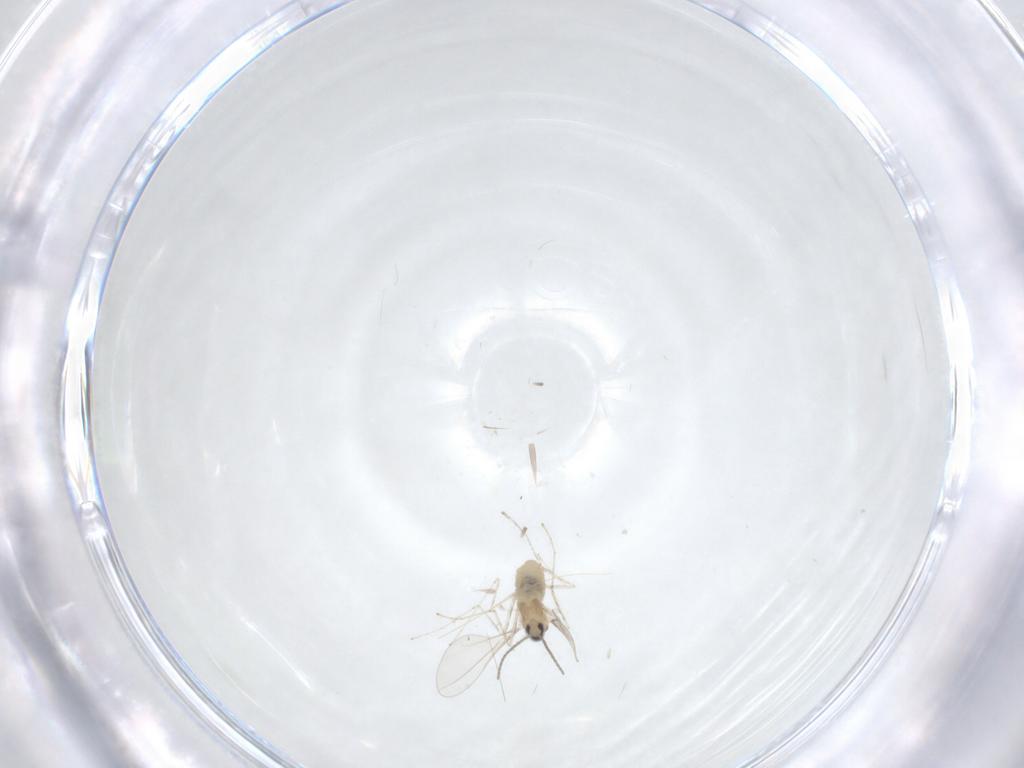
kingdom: Animalia
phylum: Arthropoda
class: Insecta
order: Diptera
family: Cecidomyiidae
